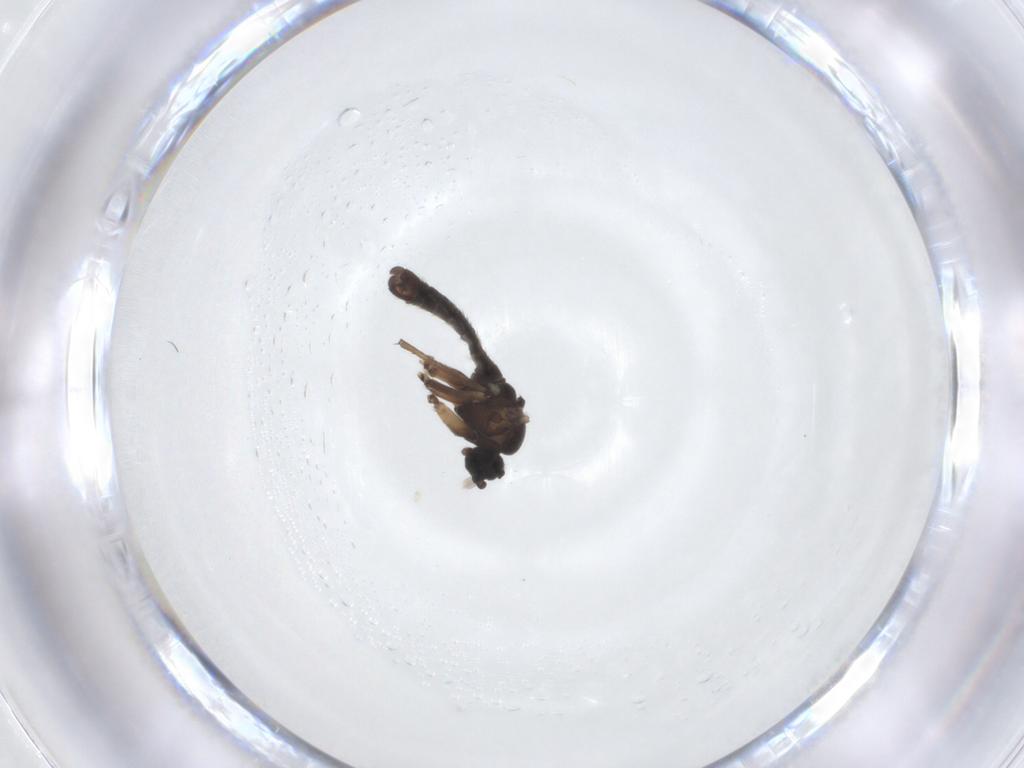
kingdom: Animalia
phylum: Arthropoda
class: Insecta
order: Diptera
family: Sciaridae
